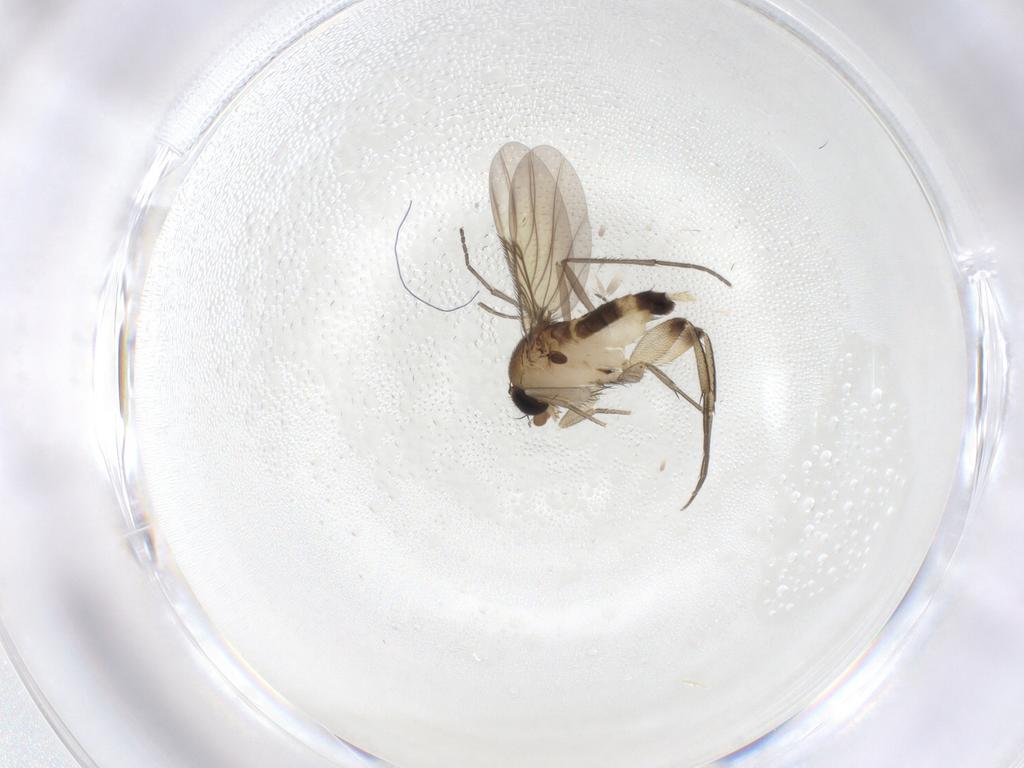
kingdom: Animalia
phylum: Arthropoda
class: Insecta
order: Diptera
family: Phoridae
